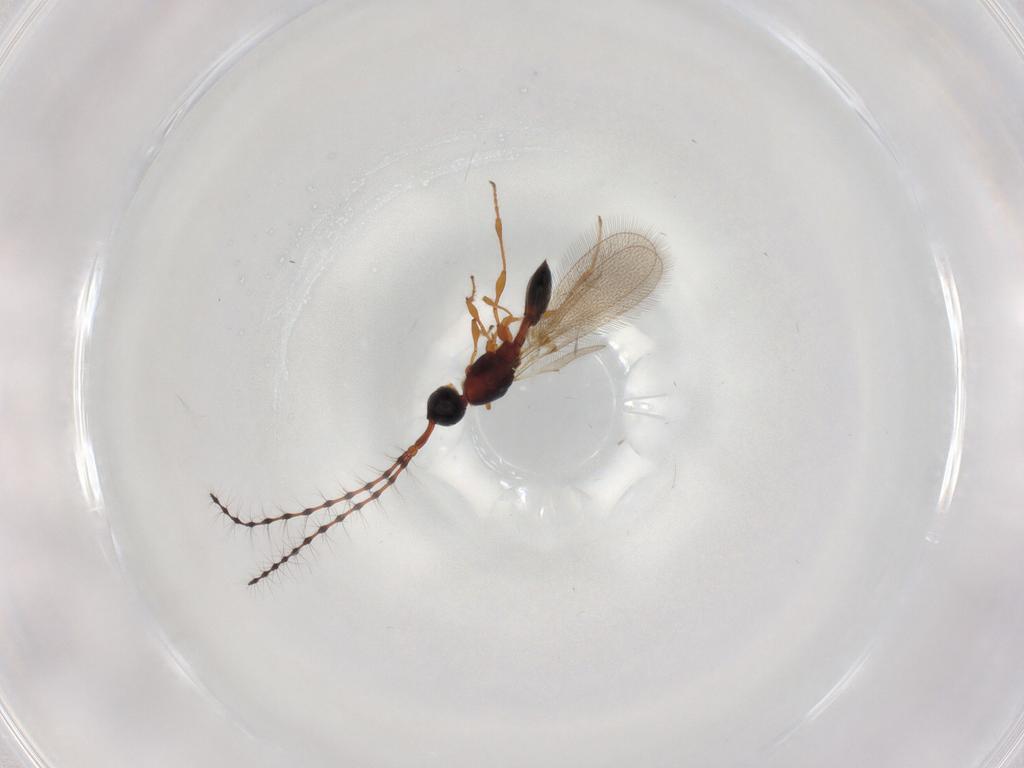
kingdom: Animalia
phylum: Arthropoda
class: Insecta
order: Hymenoptera
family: Diapriidae
